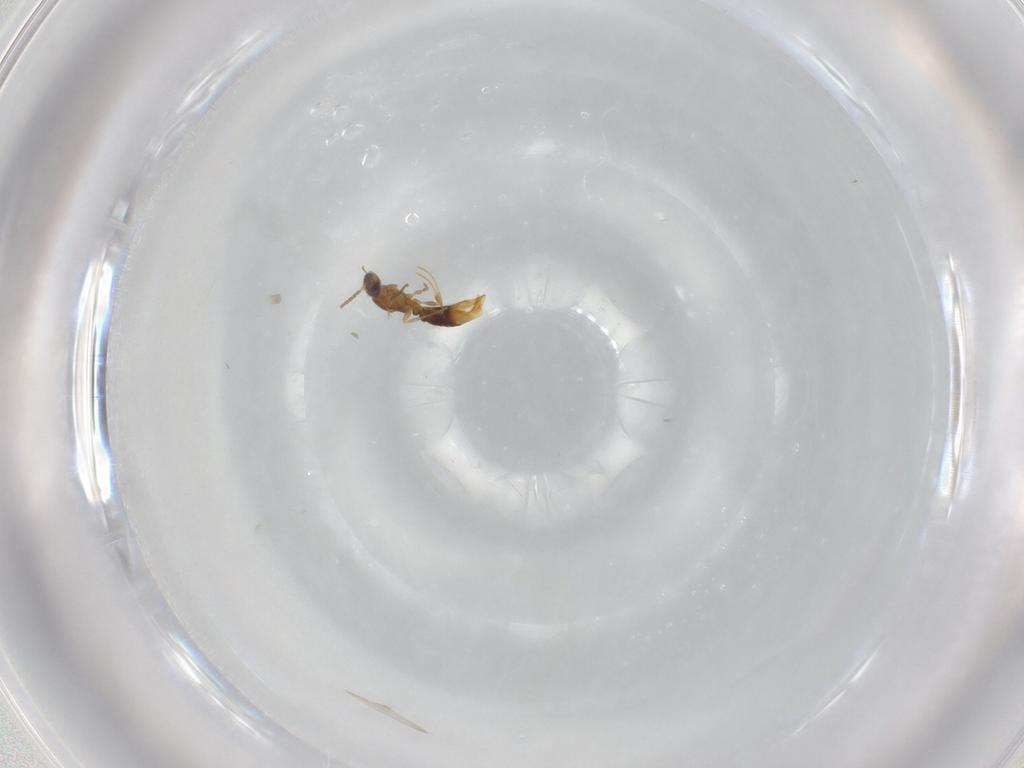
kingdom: Animalia
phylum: Arthropoda
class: Insecta
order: Hymenoptera
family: Formicidae
